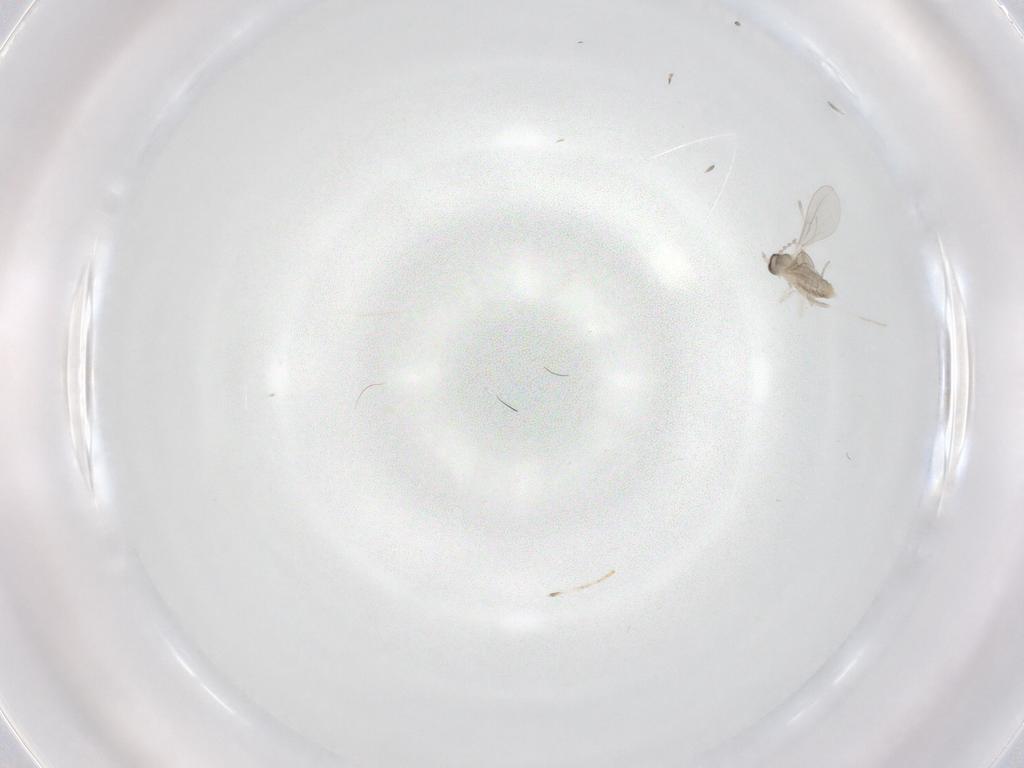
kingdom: Animalia
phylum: Arthropoda
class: Insecta
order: Diptera
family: Cecidomyiidae
